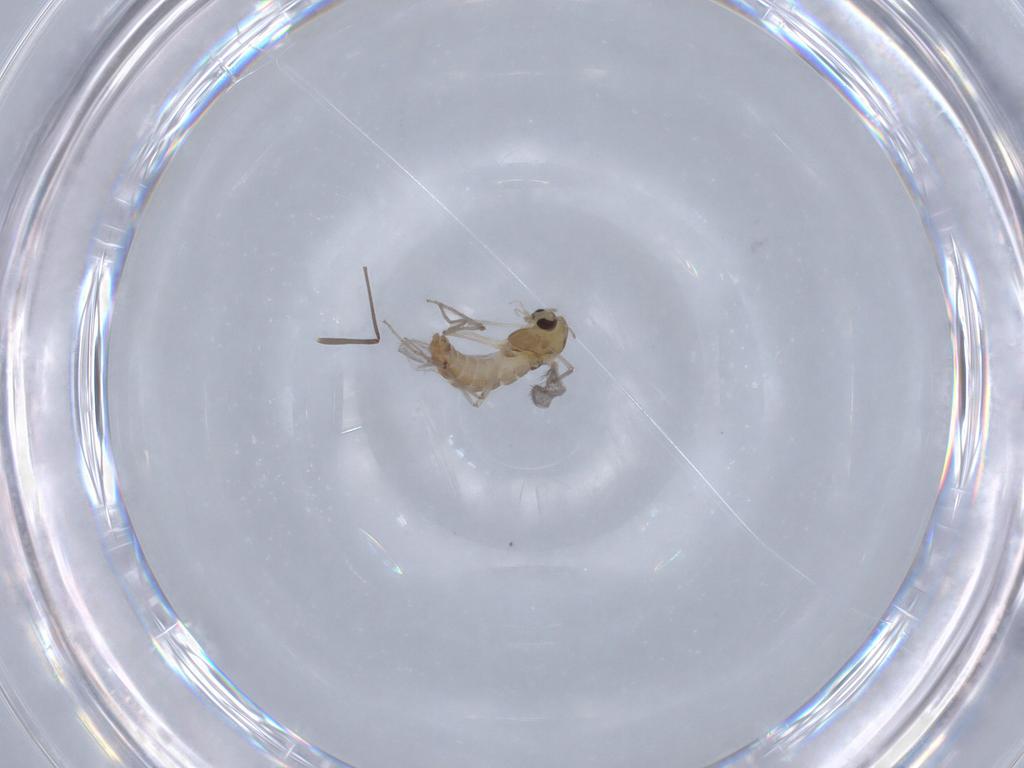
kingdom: Animalia
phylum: Arthropoda
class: Insecta
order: Diptera
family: Chironomidae
